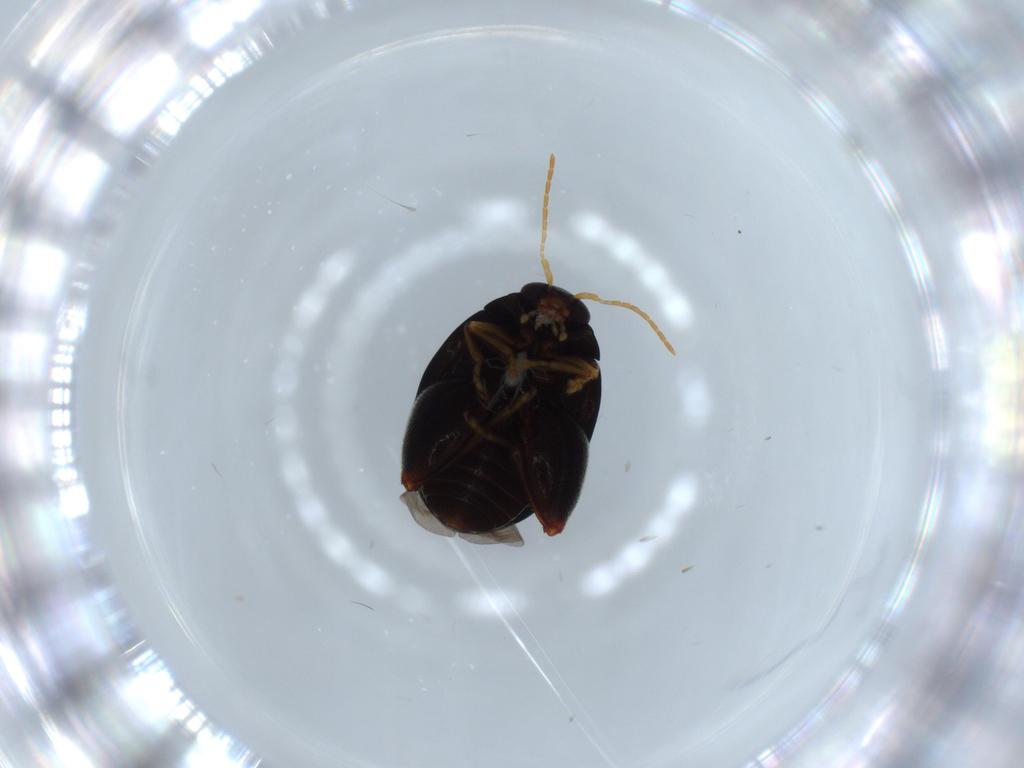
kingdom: Animalia
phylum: Arthropoda
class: Insecta
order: Coleoptera
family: Chrysomelidae
